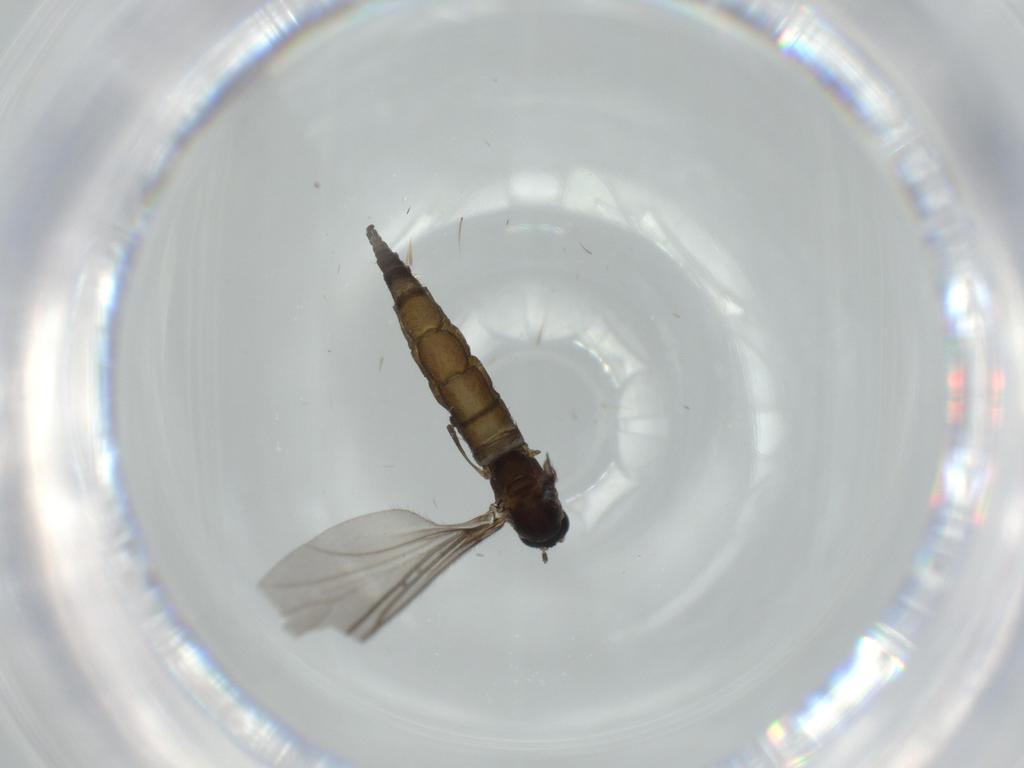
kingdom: Animalia
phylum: Arthropoda
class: Insecta
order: Diptera
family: Sciaridae
